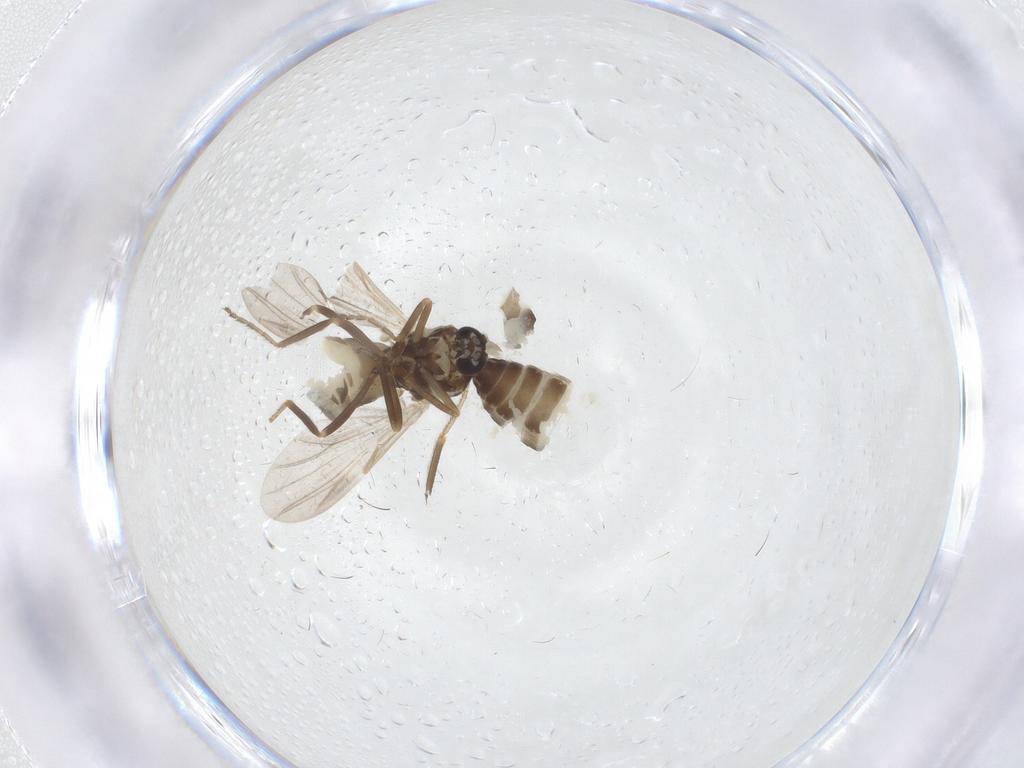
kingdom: Animalia
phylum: Arthropoda
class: Insecta
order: Diptera
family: Ceratopogonidae
